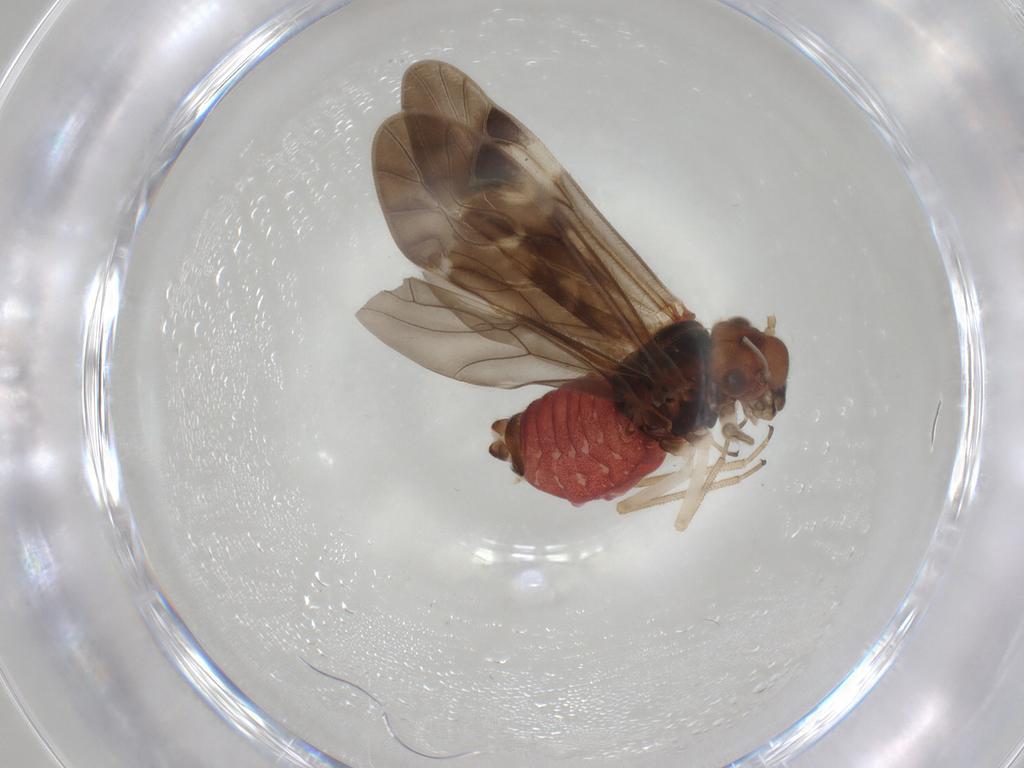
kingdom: Animalia
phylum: Arthropoda
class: Insecta
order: Psocodea
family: Caeciliusidae
